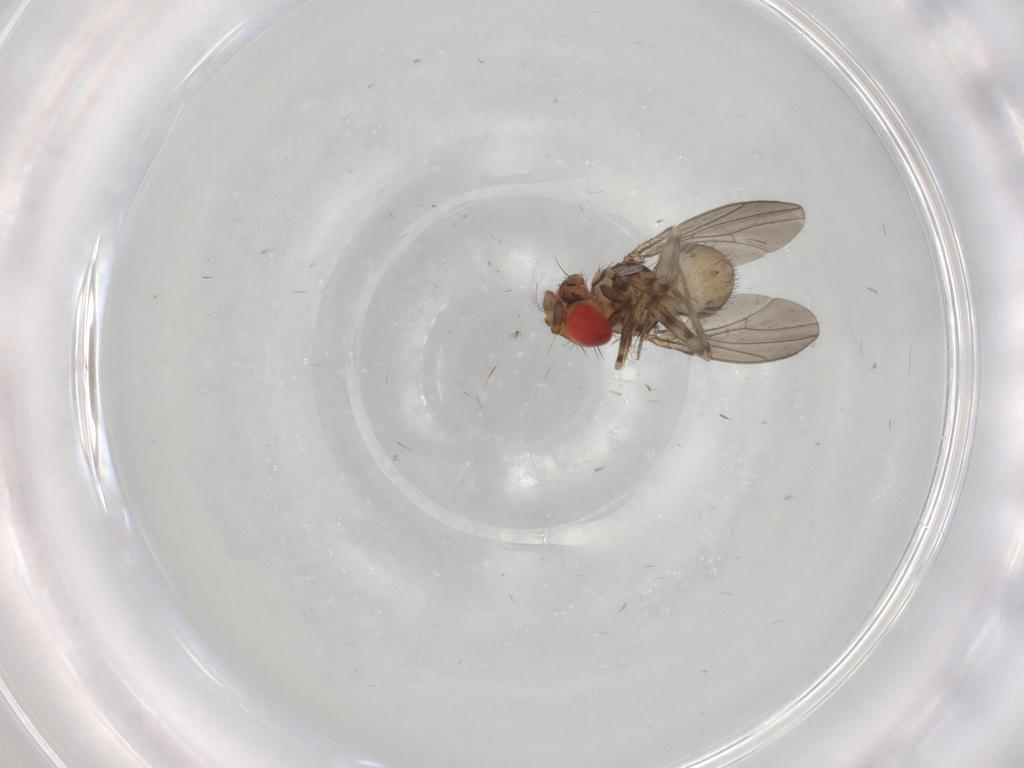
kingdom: Animalia
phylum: Arthropoda
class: Insecta
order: Diptera
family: Drosophilidae
